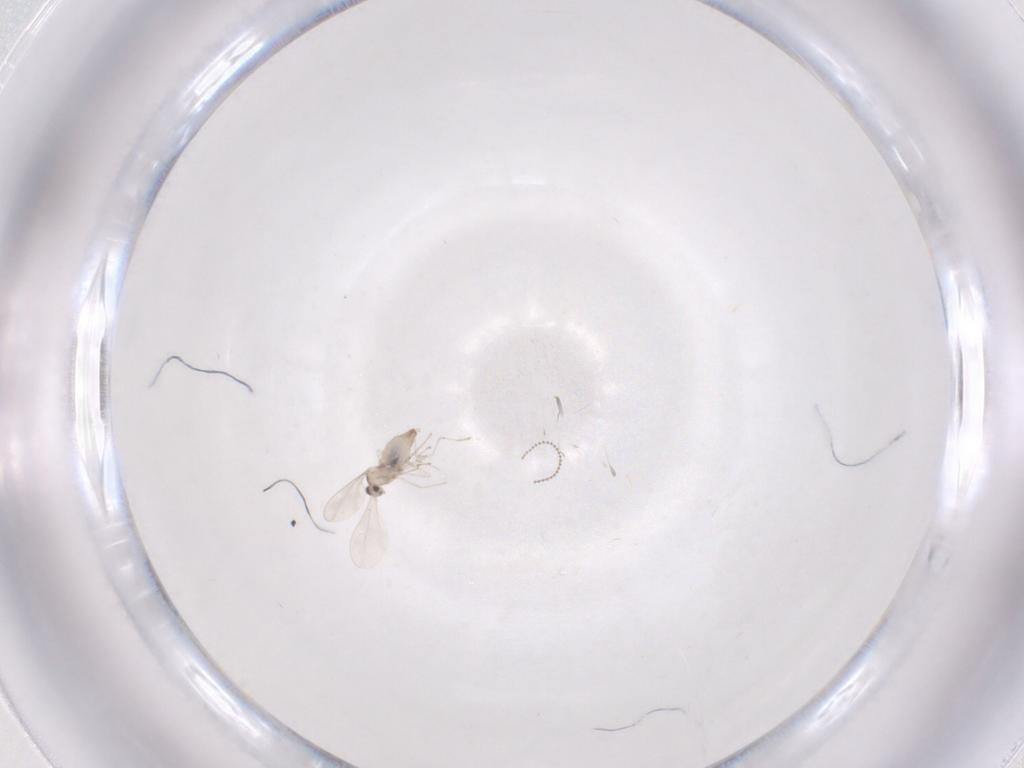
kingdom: Animalia
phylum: Arthropoda
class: Insecta
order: Diptera
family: Cecidomyiidae
